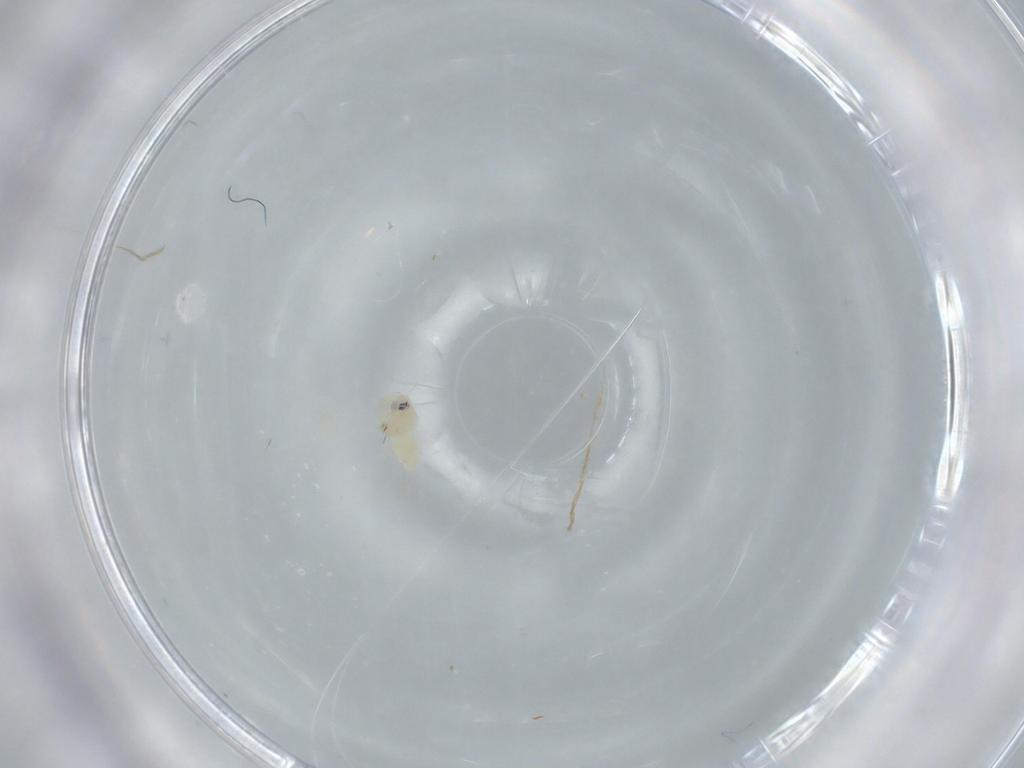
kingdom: Animalia
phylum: Arthropoda
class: Insecta
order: Hemiptera
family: Aleyrodidae
